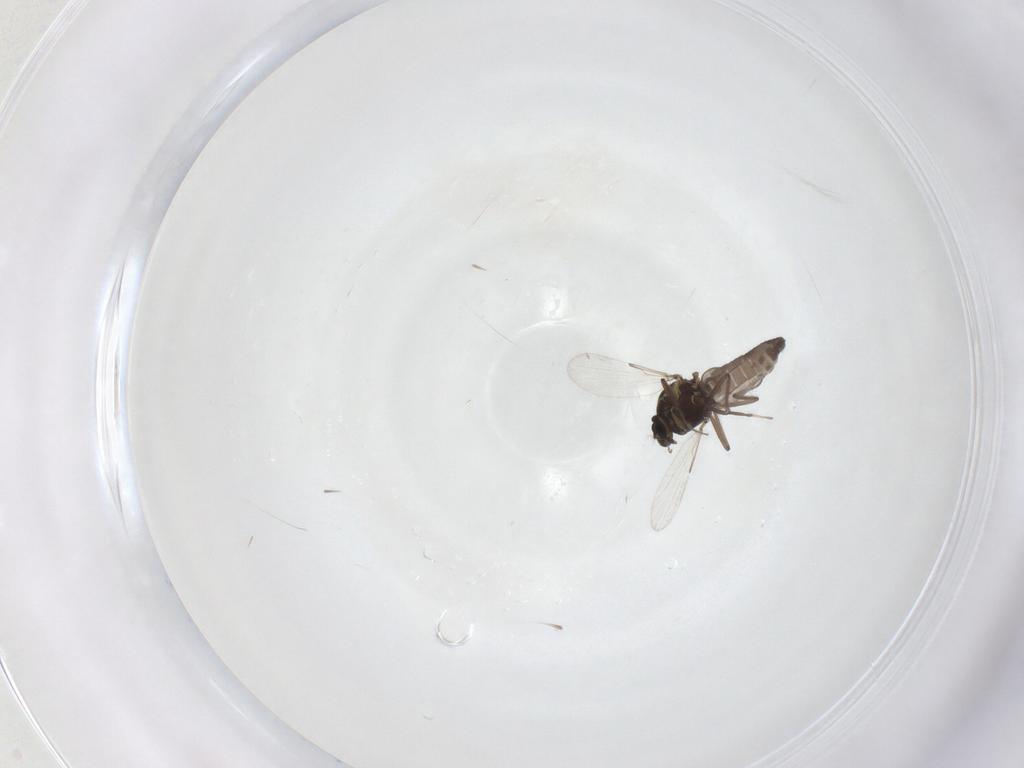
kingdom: Animalia
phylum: Arthropoda
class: Insecta
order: Diptera
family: Ceratopogonidae
